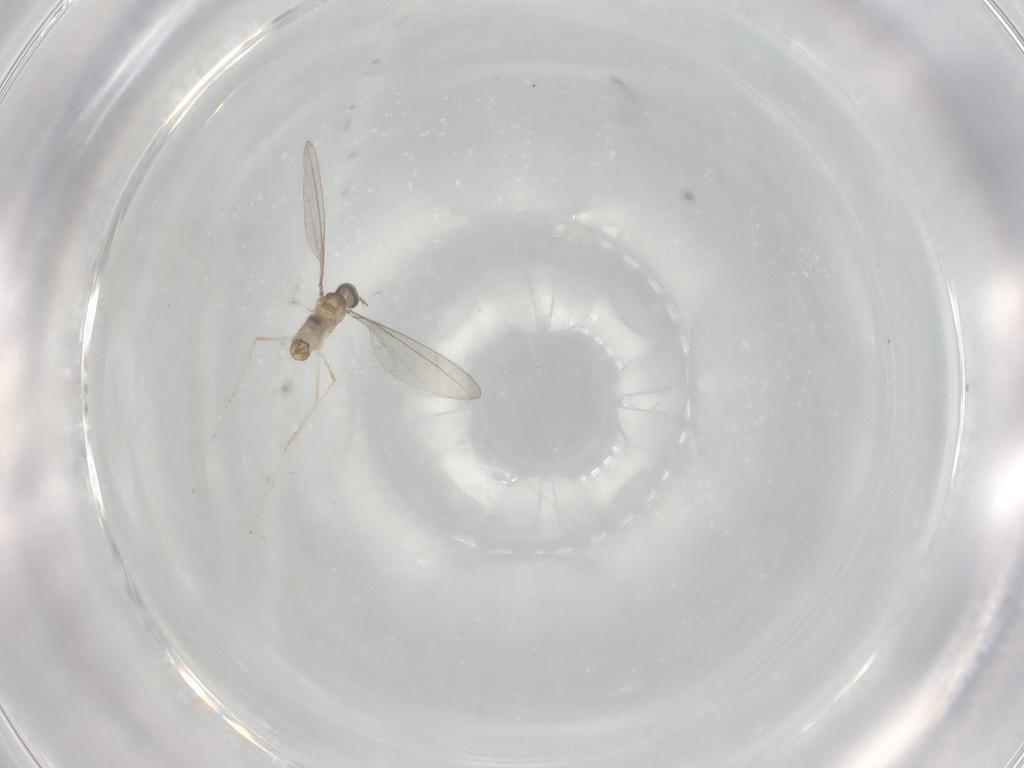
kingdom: Animalia
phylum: Arthropoda
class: Insecta
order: Diptera
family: Cecidomyiidae
